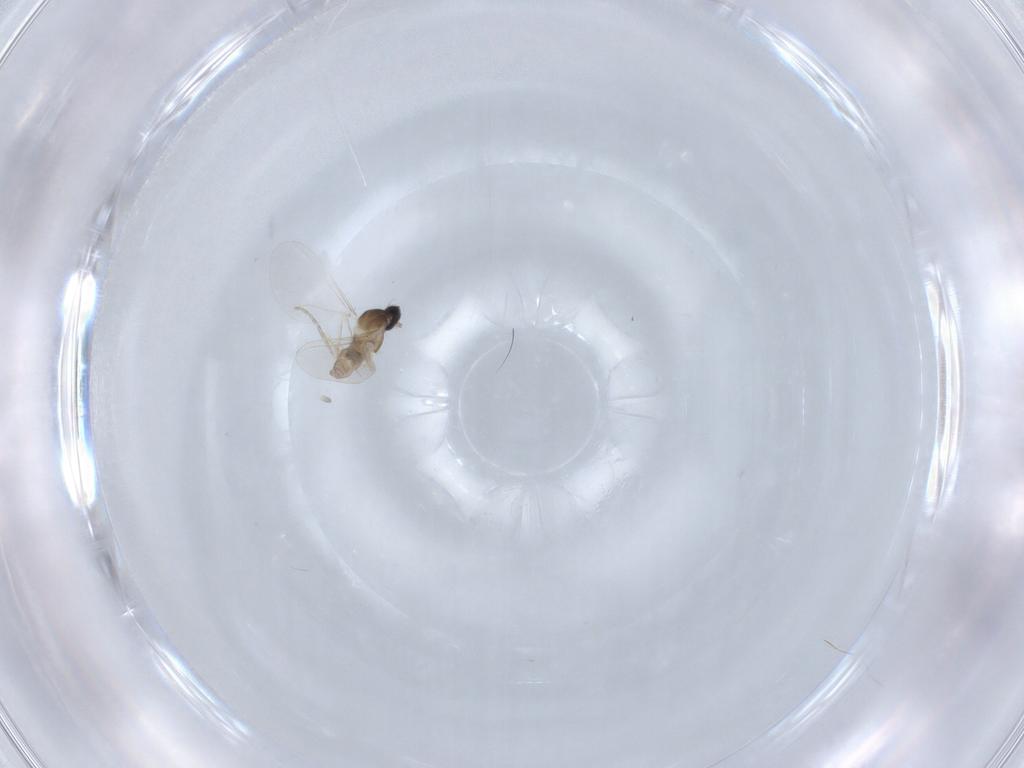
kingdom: Animalia
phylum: Arthropoda
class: Insecta
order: Diptera
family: Cecidomyiidae
